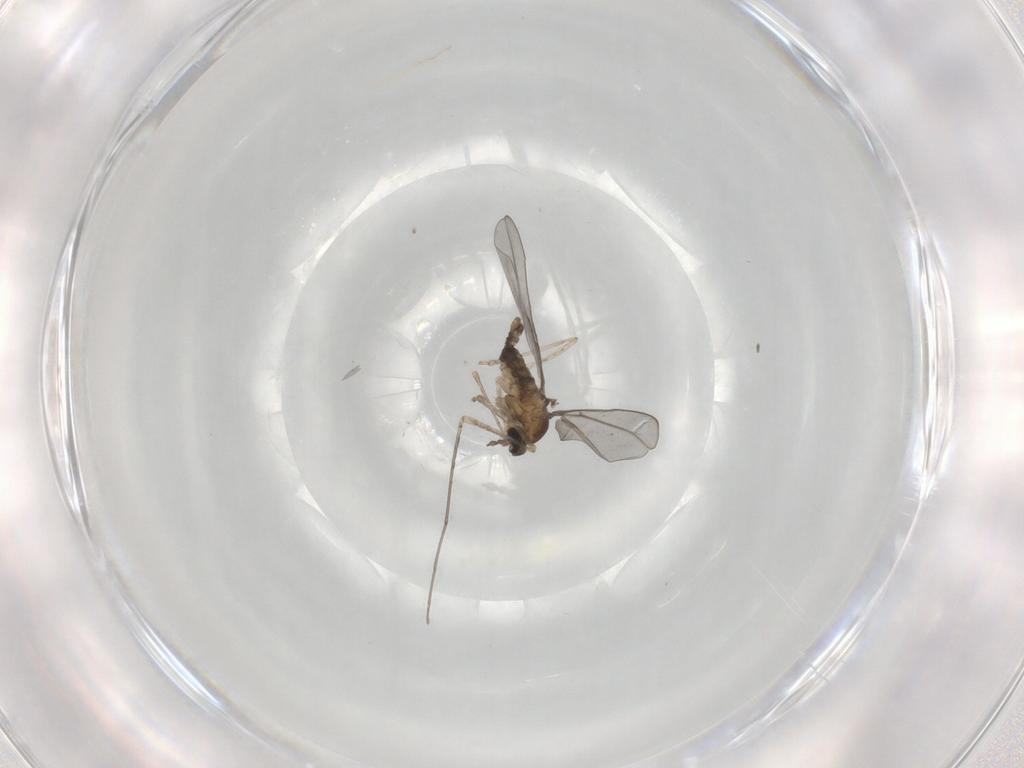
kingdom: Animalia
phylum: Arthropoda
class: Insecta
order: Diptera
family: Cecidomyiidae
